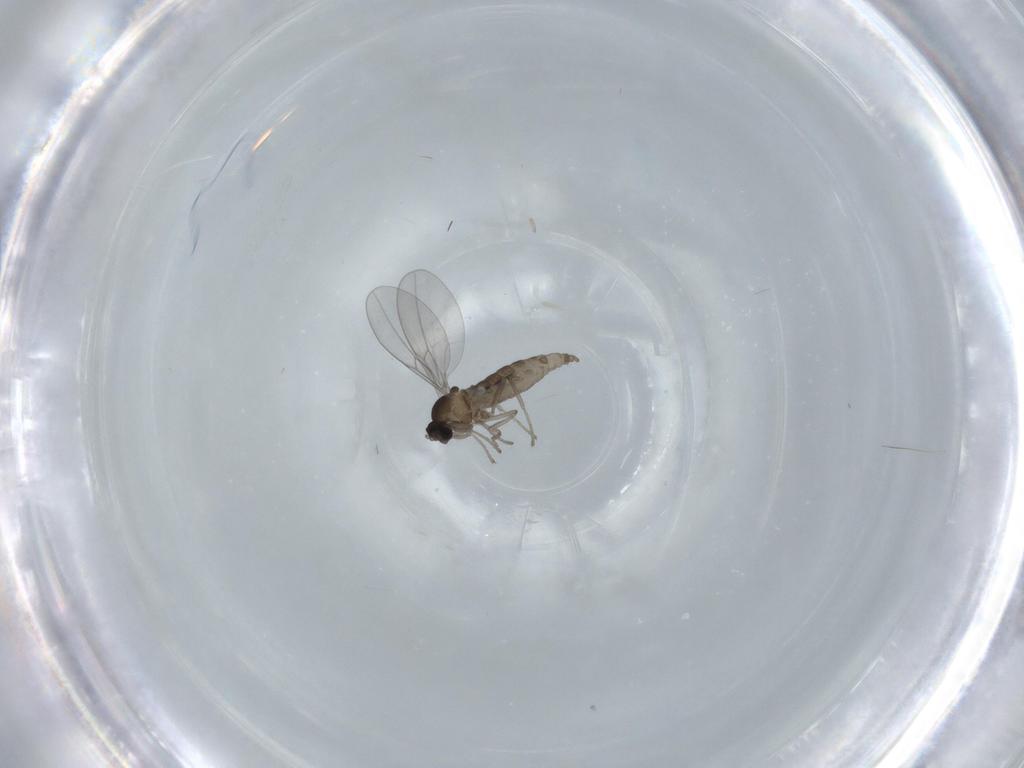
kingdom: Animalia
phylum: Arthropoda
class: Insecta
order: Diptera
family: Cecidomyiidae
